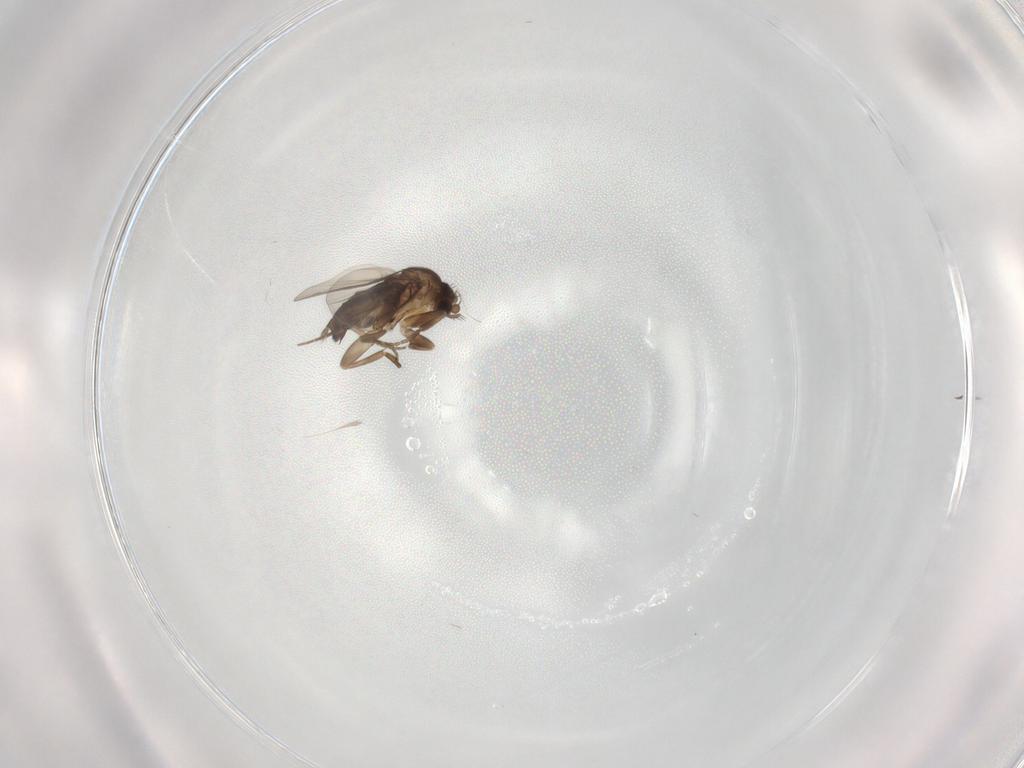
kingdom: Animalia
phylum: Arthropoda
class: Insecta
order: Diptera
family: Phoridae
